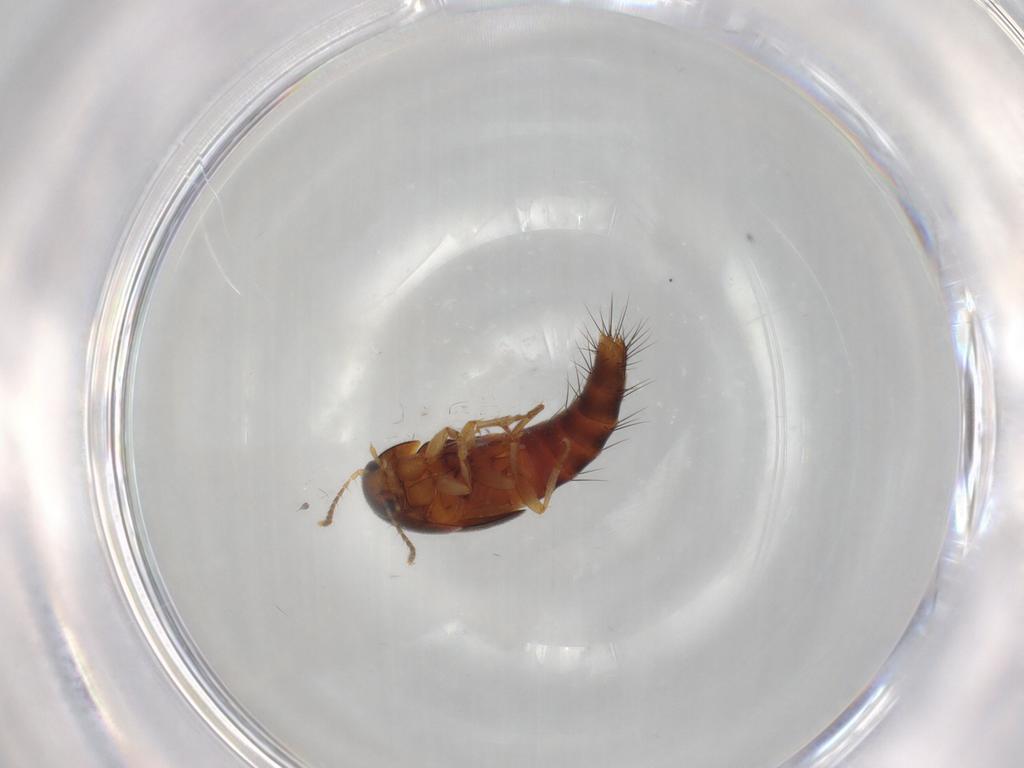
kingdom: Animalia
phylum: Arthropoda
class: Insecta
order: Coleoptera
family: Staphylinidae
